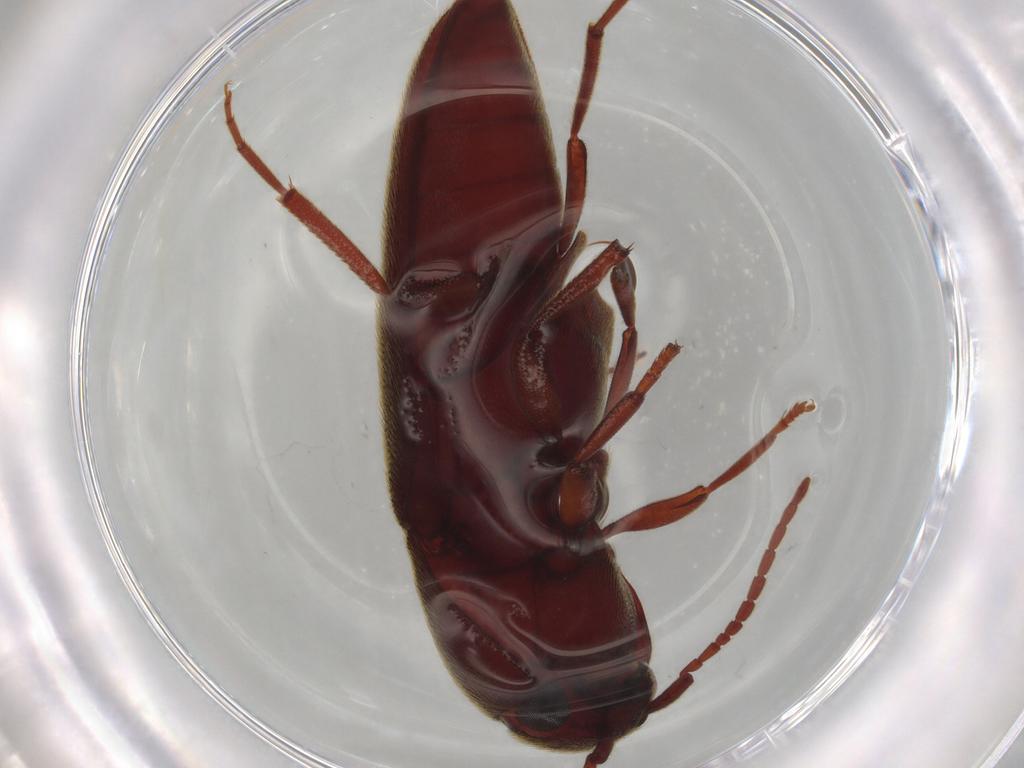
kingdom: Animalia
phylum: Arthropoda
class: Insecta
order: Coleoptera
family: Eucnemidae
